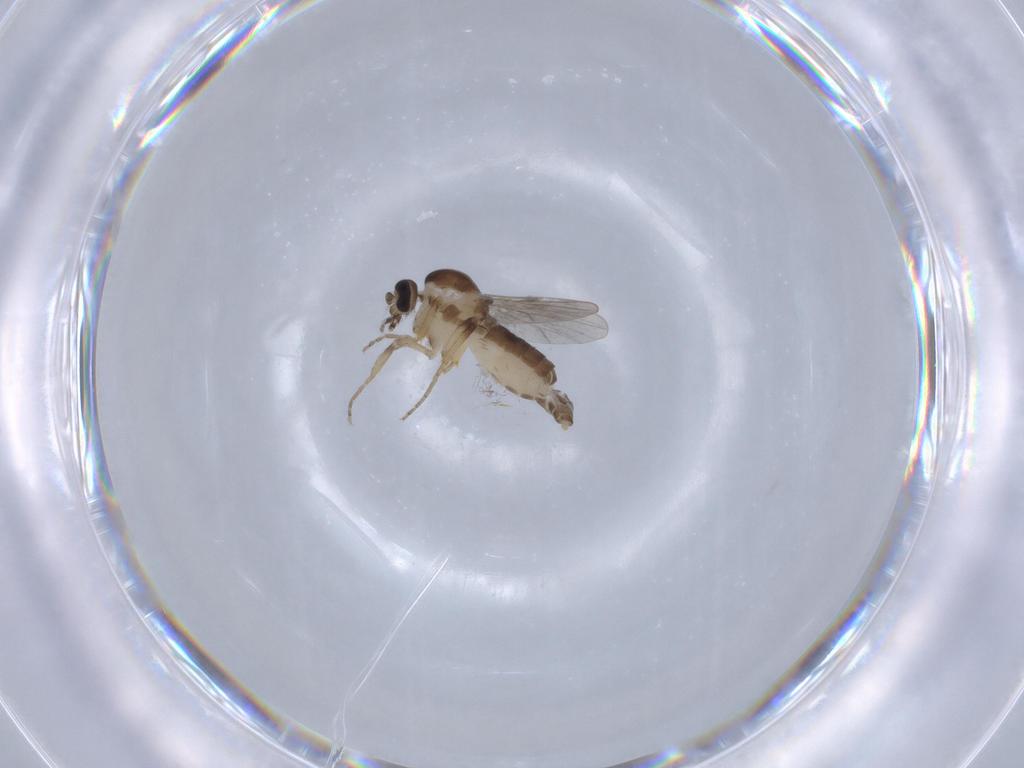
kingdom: Animalia
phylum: Arthropoda
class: Insecta
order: Diptera
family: Ceratopogonidae
